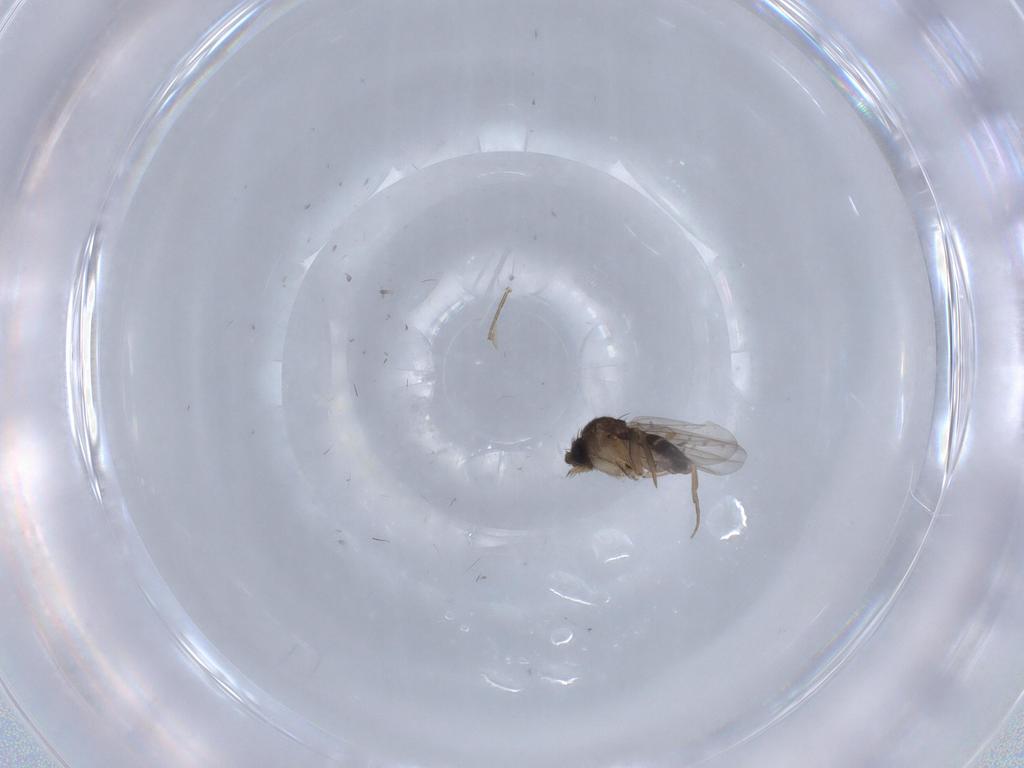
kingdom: Animalia
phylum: Arthropoda
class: Insecta
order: Diptera
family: Phoridae
